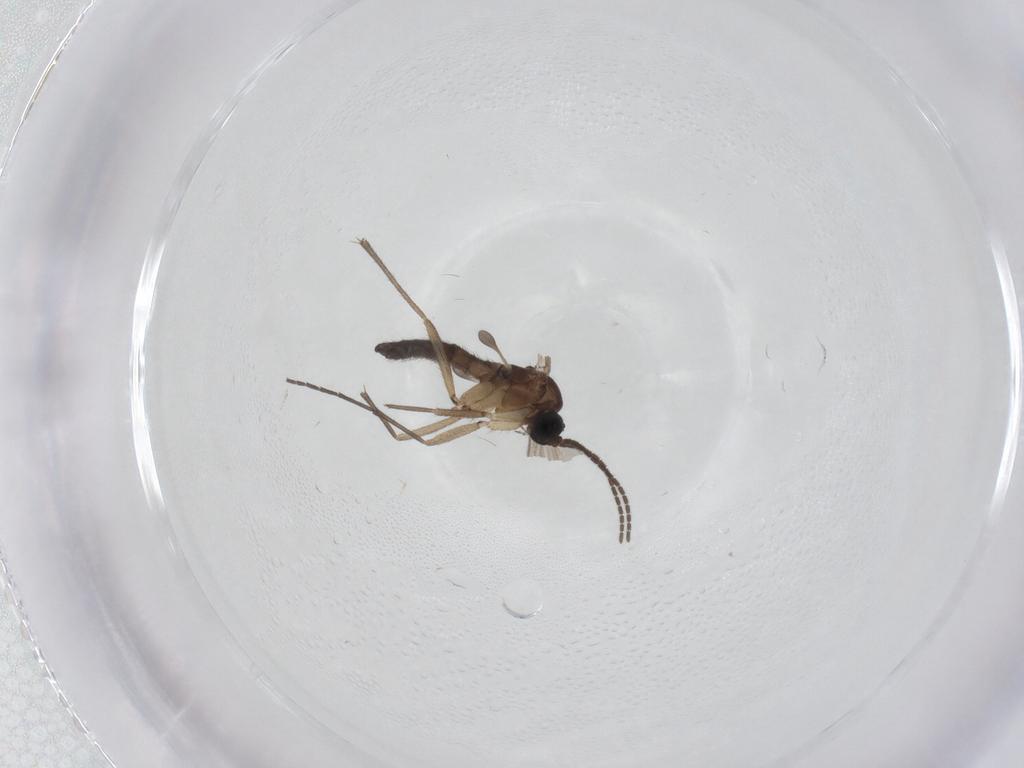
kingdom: Animalia
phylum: Arthropoda
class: Insecta
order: Diptera
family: Sciaridae
